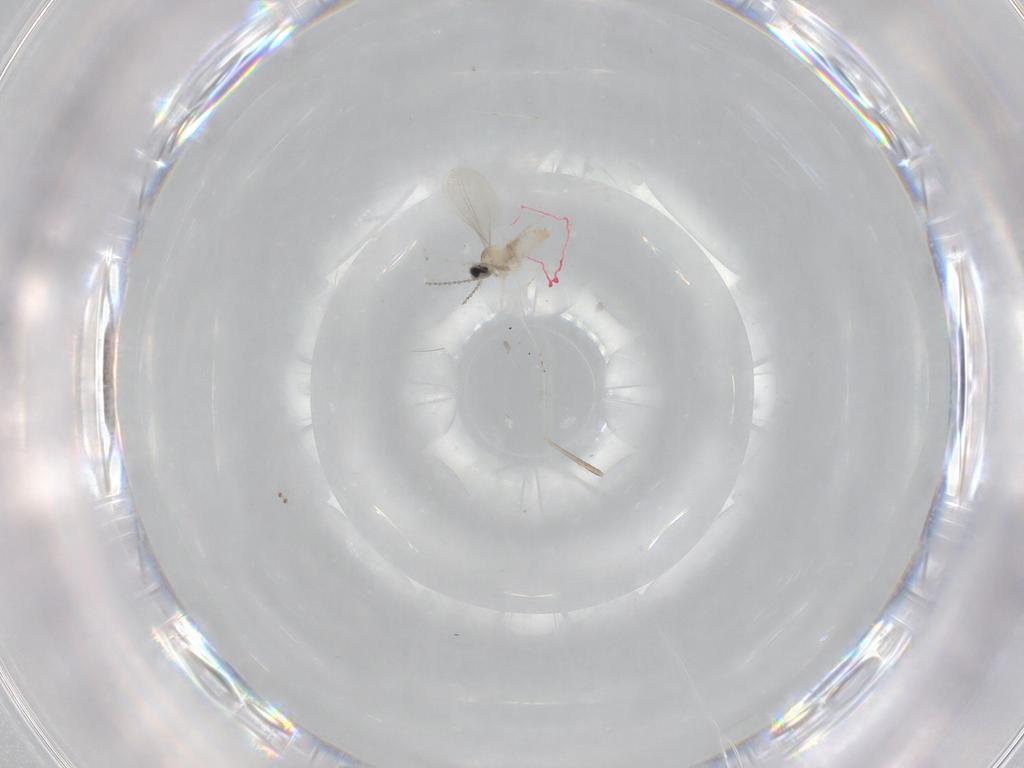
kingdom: Animalia
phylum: Arthropoda
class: Insecta
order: Diptera
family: Cecidomyiidae
